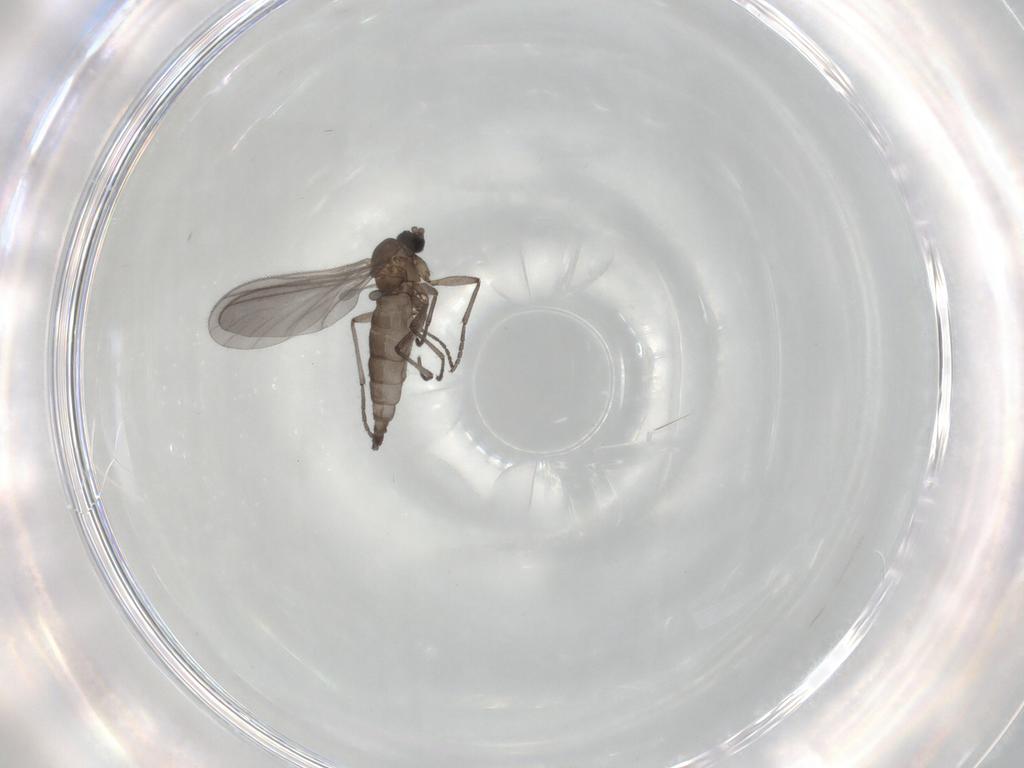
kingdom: Animalia
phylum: Arthropoda
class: Insecta
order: Diptera
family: Sciaridae
